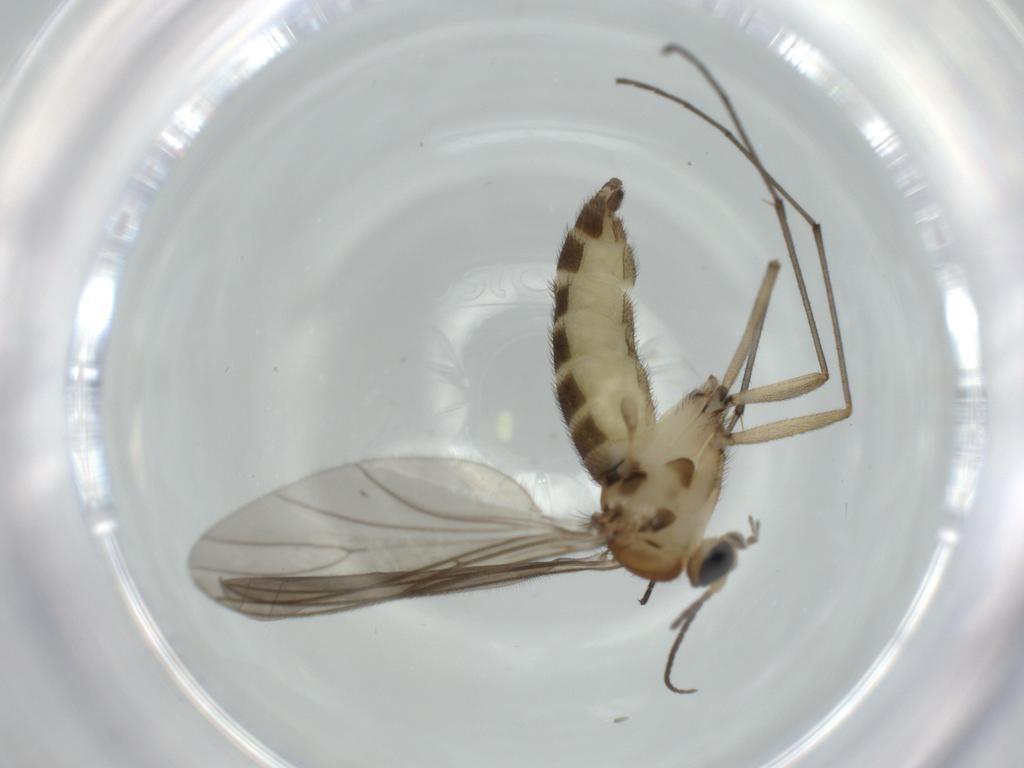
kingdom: Animalia
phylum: Arthropoda
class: Insecta
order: Diptera
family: Sciaridae
